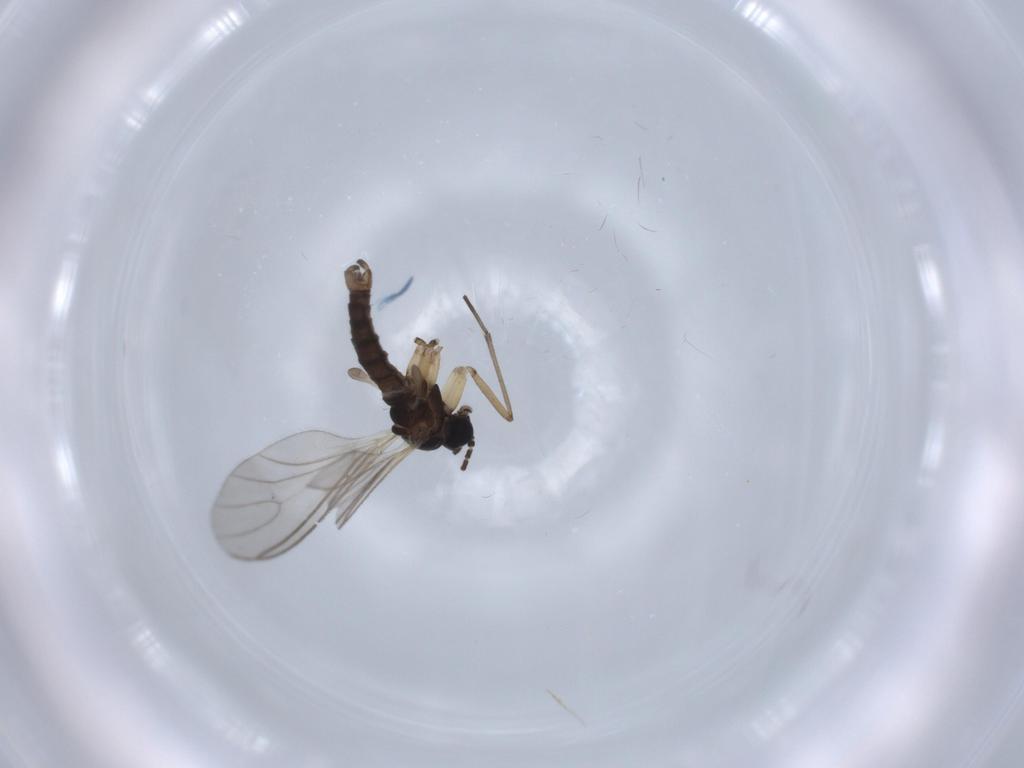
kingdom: Animalia
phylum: Arthropoda
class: Insecta
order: Diptera
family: Sciaridae
